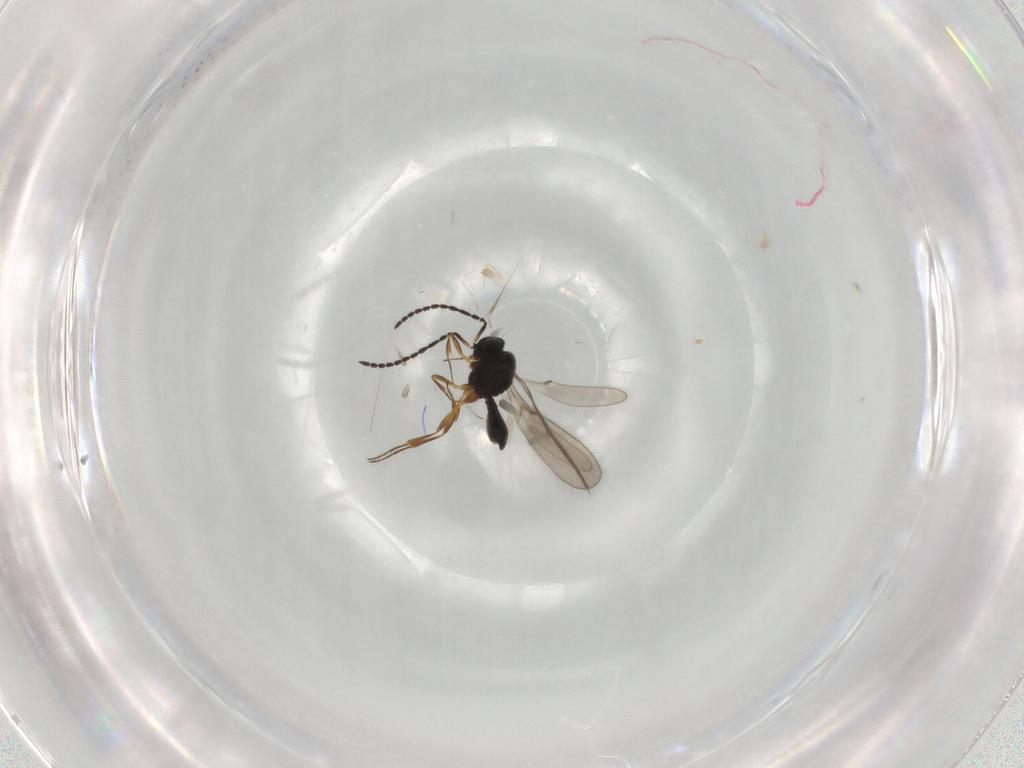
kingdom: Animalia
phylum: Arthropoda
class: Insecta
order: Hymenoptera
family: Scelionidae
